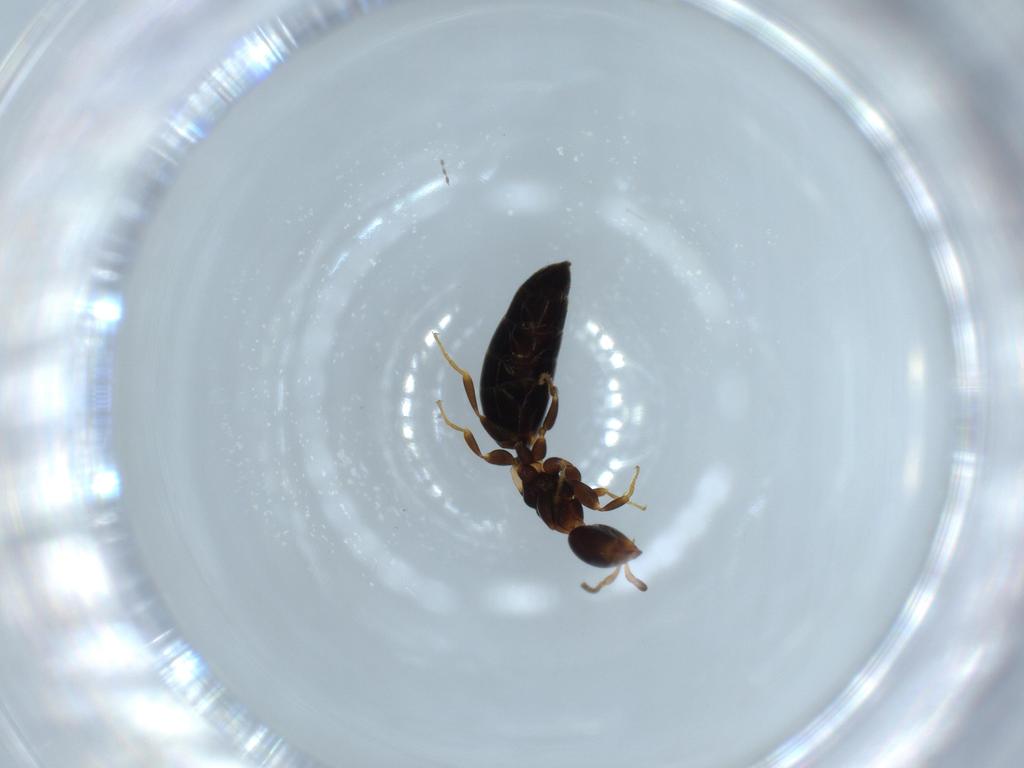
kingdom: Animalia
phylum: Arthropoda
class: Insecta
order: Hymenoptera
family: Bethylidae
